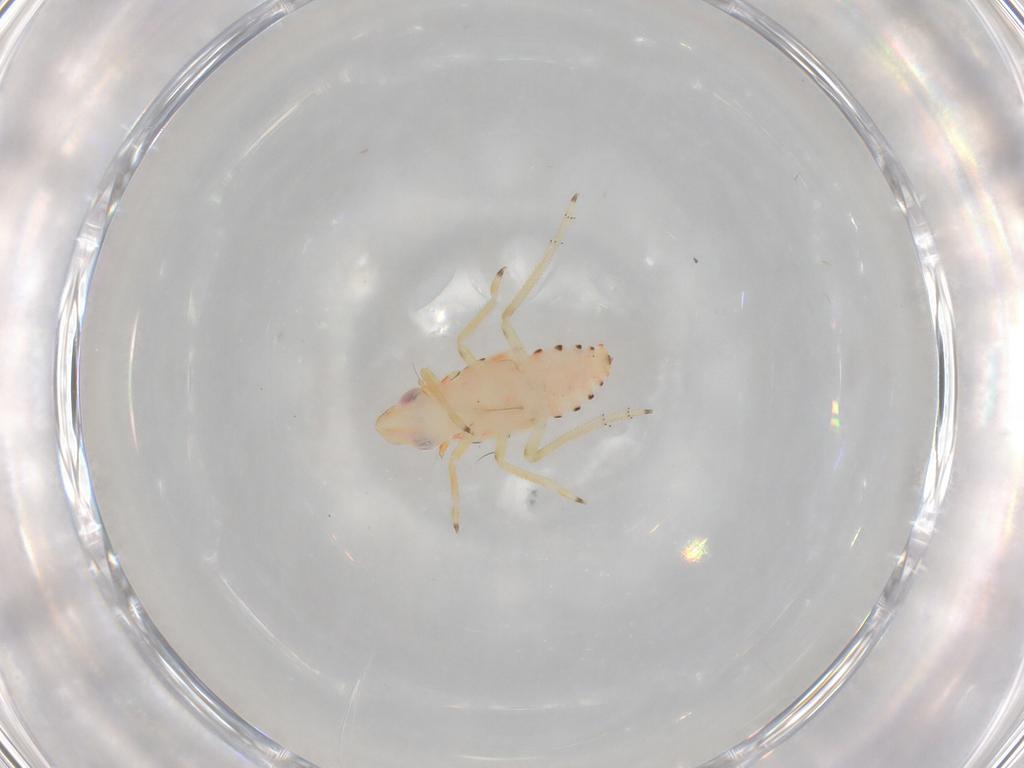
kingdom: Animalia
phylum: Arthropoda
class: Insecta
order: Hemiptera
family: Tropiduchidae
